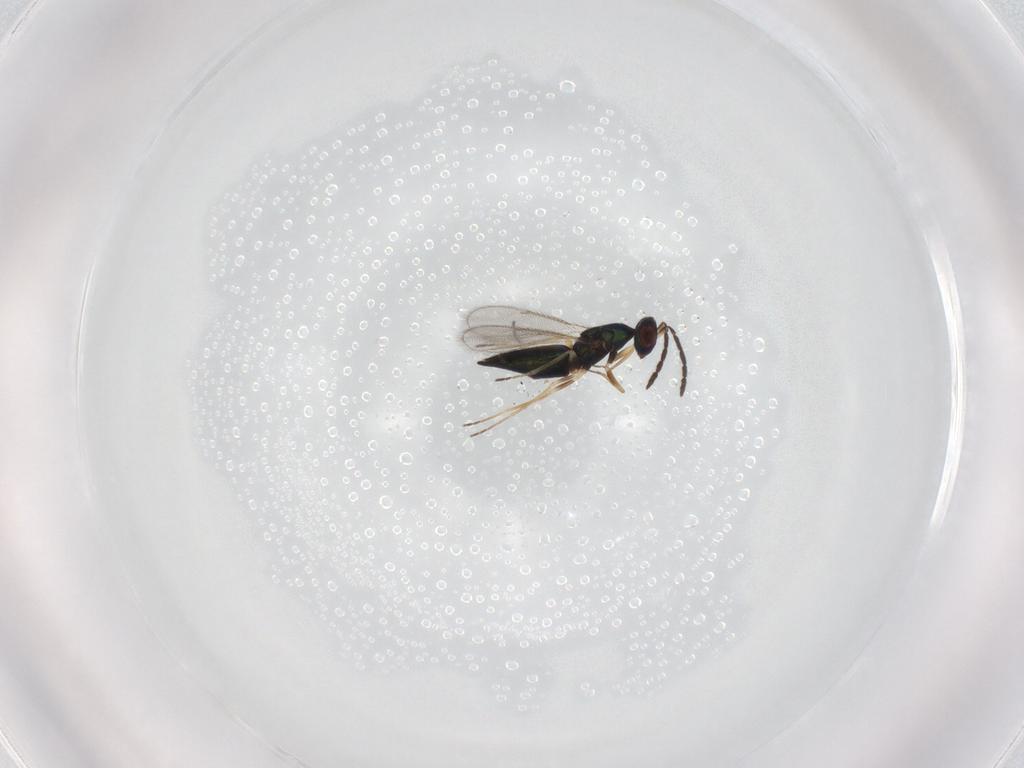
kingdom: Animalia
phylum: Arthropoda
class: Insecta
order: Hymenoptera
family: Eulophidae
